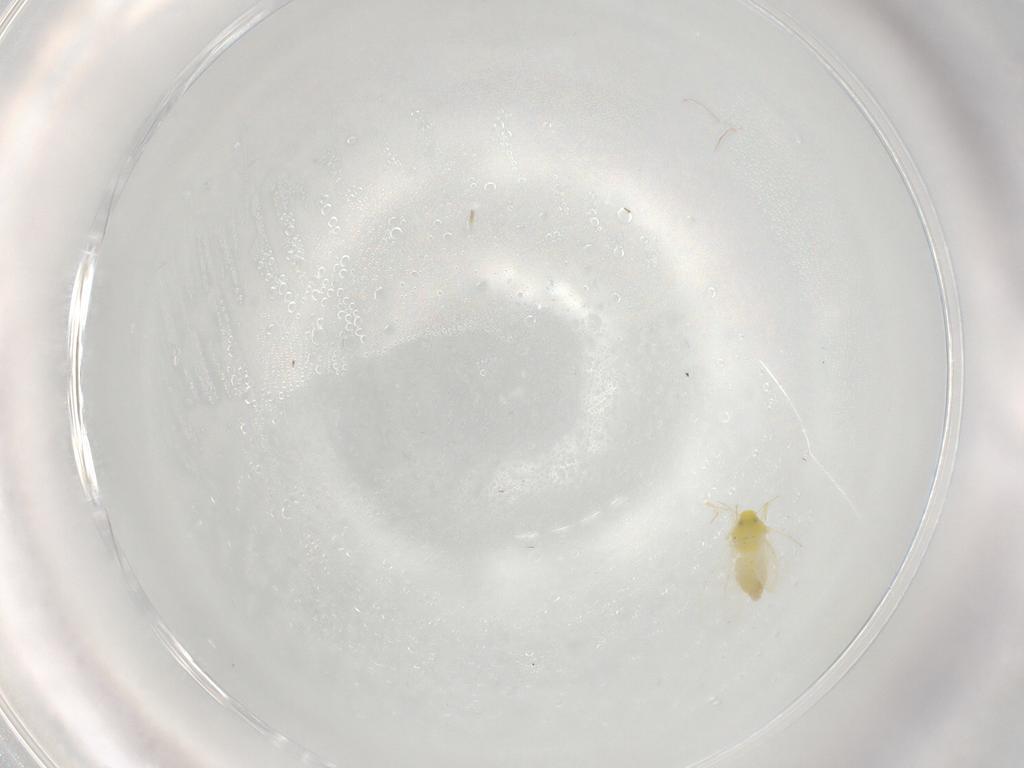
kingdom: Animalia
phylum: Arthropoda
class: Insecta
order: Hemiptera
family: Aleyrodidae
